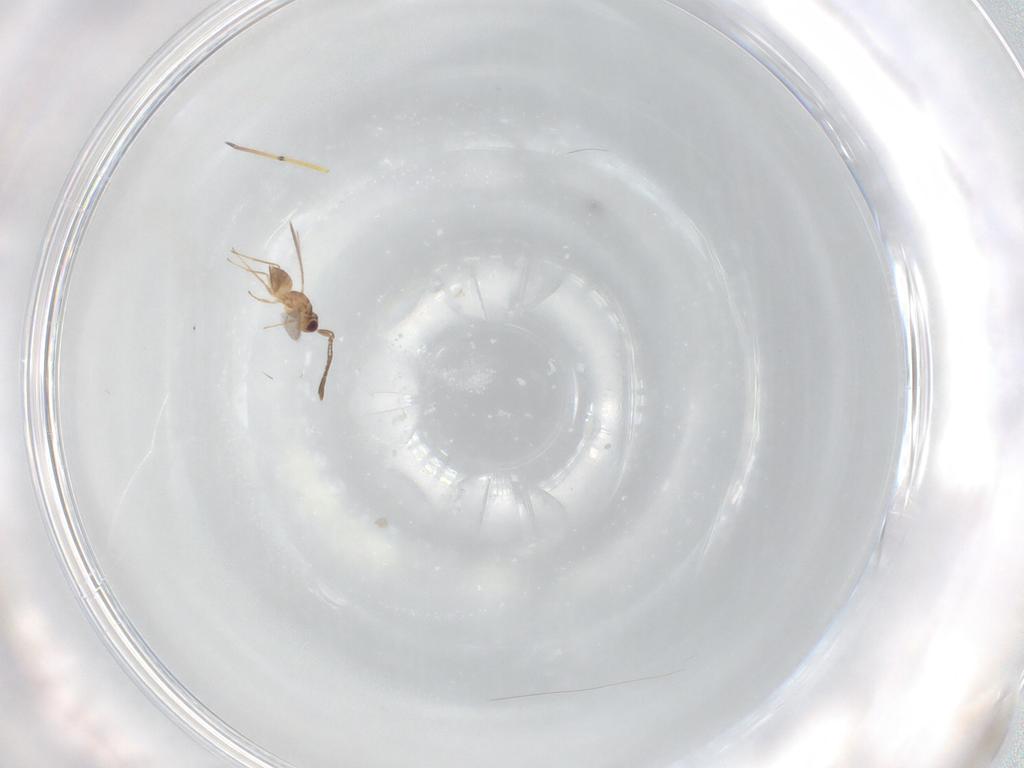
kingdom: Animalia
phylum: Arthropoda
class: Insecta
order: Hymenoptera
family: Mymaridae
